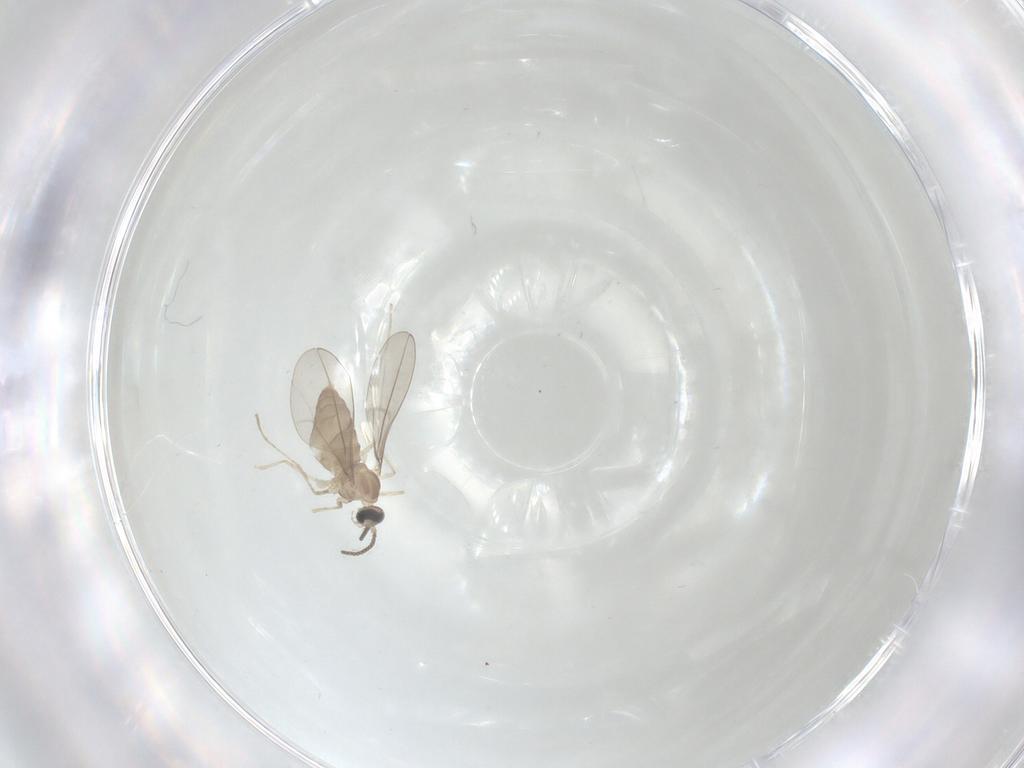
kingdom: Animalia
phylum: Arthropoda
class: Insecta
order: Diptera
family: Cecidomyiidae
